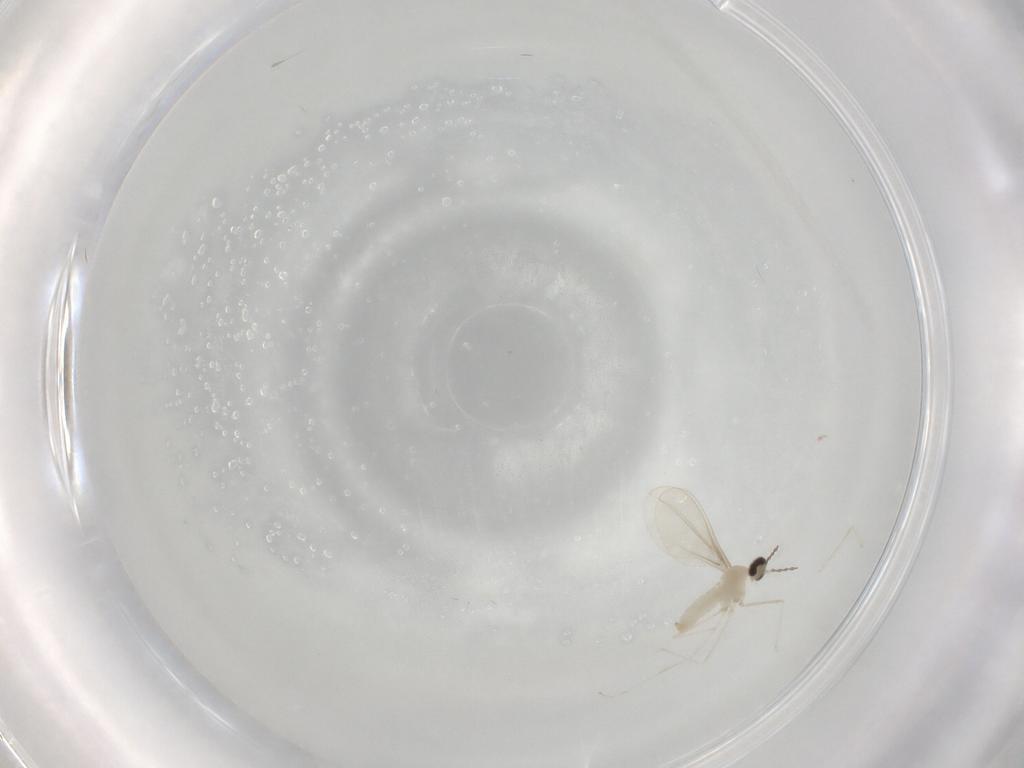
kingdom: Animalia
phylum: Arthropoda
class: Insecta
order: Diptera
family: Cecidomyiidae
